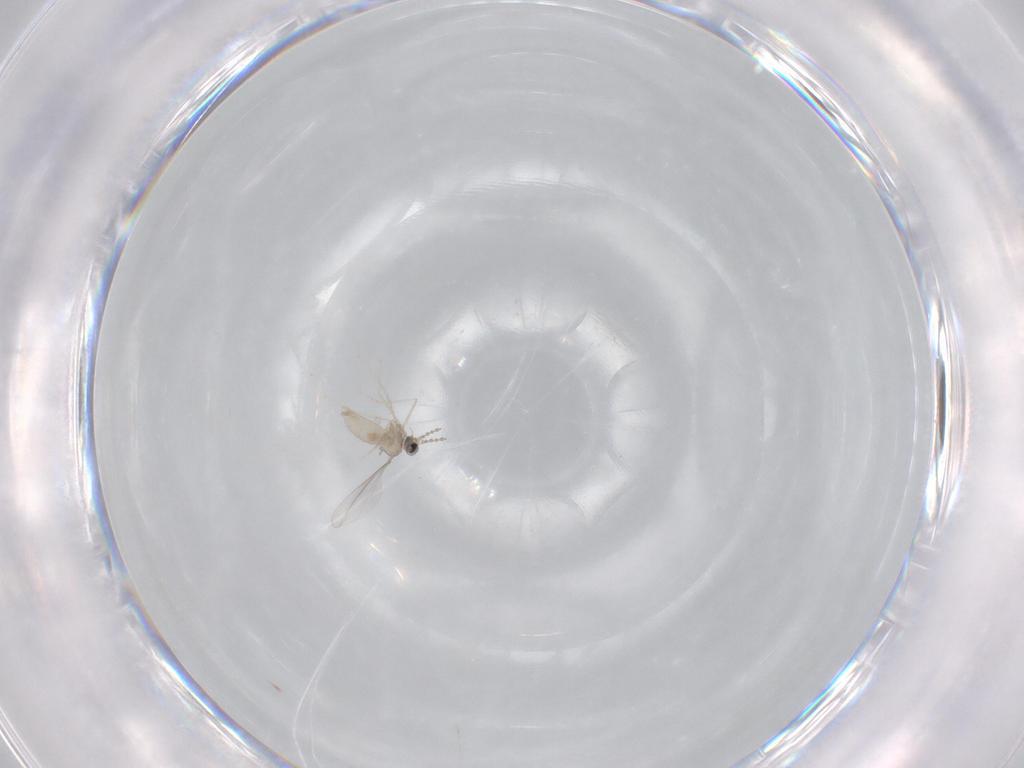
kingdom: Animalia
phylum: Arthropoda
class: Insecta
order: Diptera
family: Cecidomyiidae
